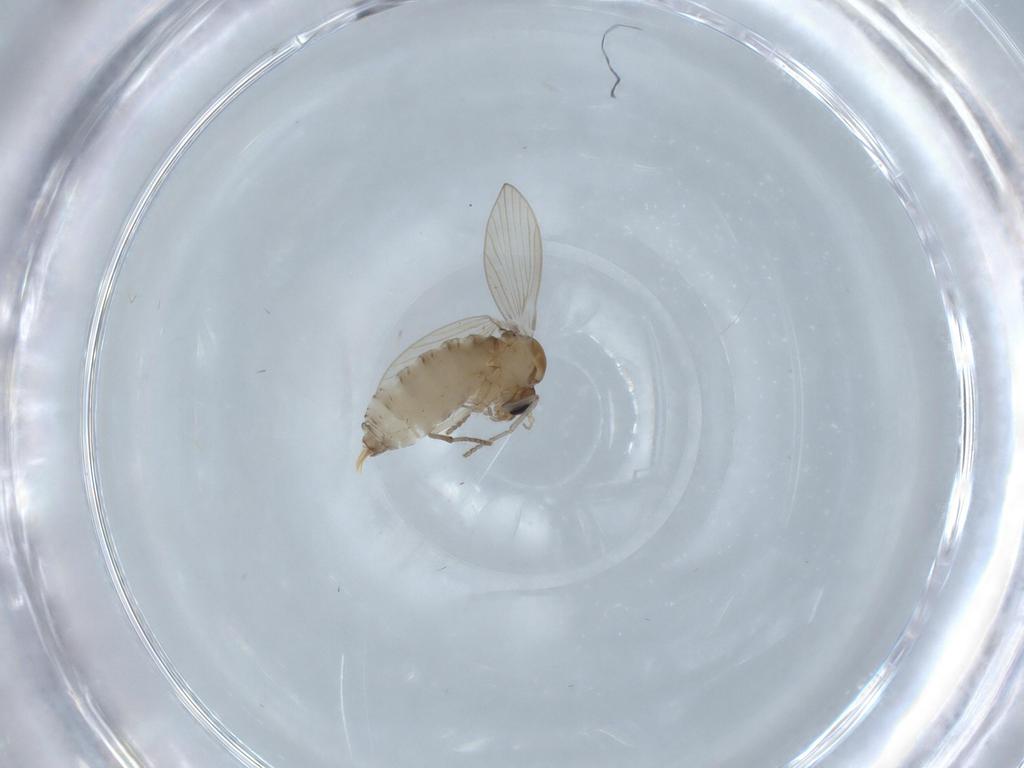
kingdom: Animalia
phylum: Arthropoda
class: Insecta
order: Diptera
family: Psychodidae
